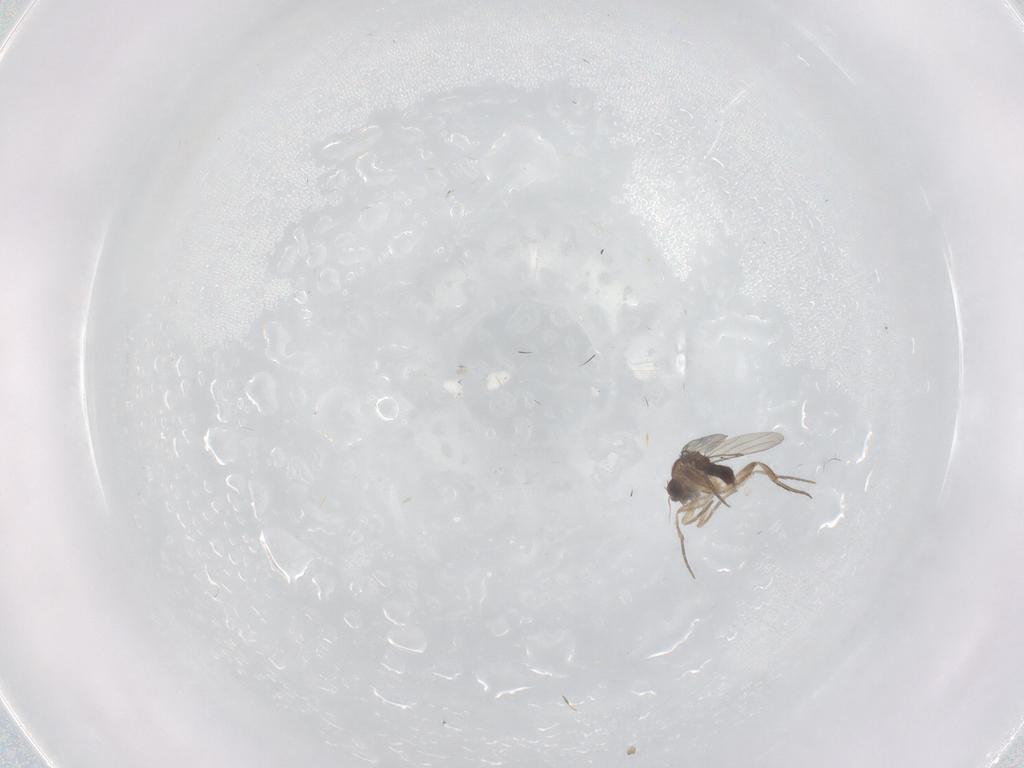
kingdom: Animalia
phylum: Arthropoda
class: Insecta
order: Diptera
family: Phoridae
